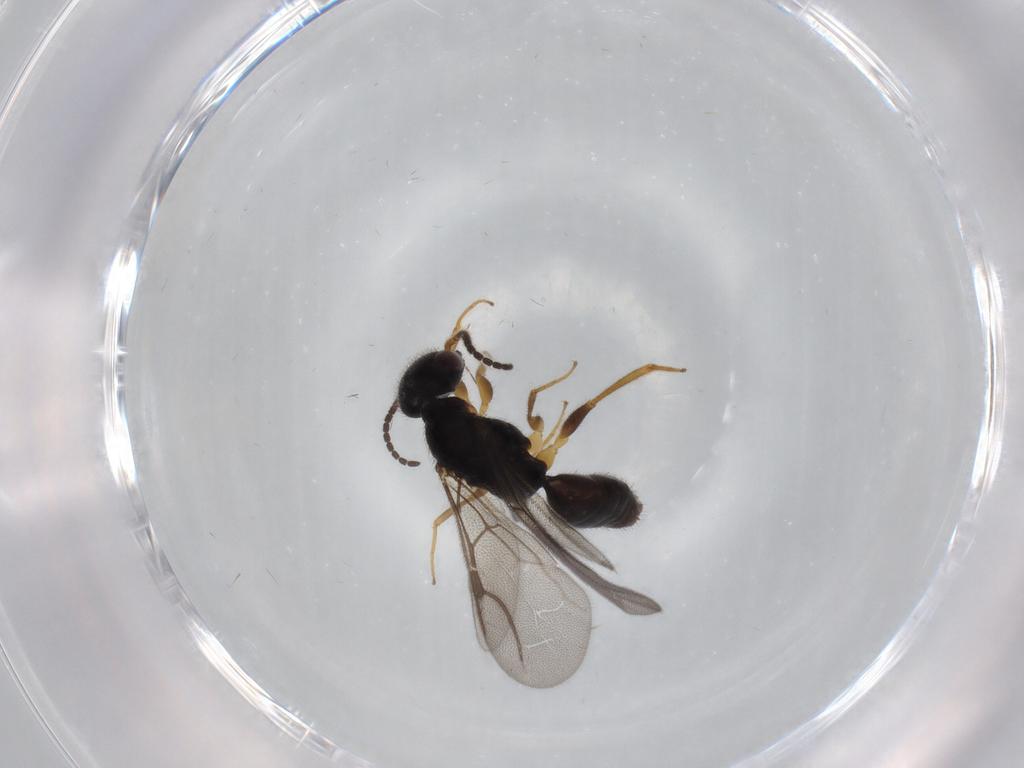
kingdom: Animalia
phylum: Arthropoda
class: Insecta
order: Hymenoptera
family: Bethylidae
